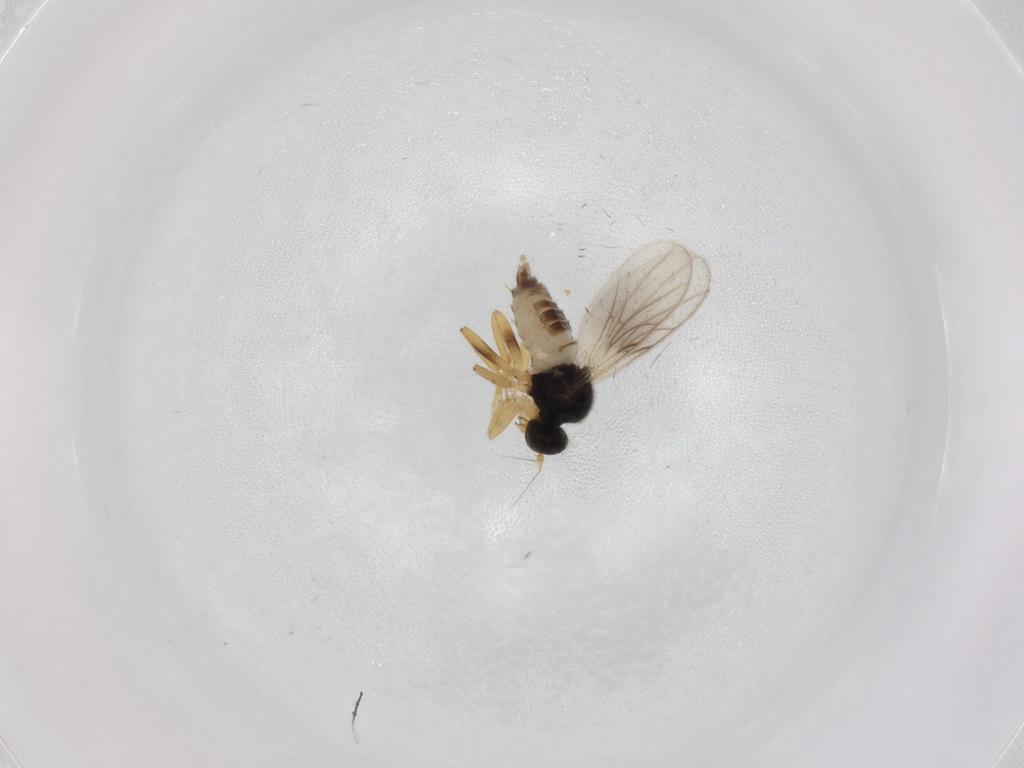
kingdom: Animalia
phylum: Arthropoda
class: Insecta
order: Diptera
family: Hybotidae
